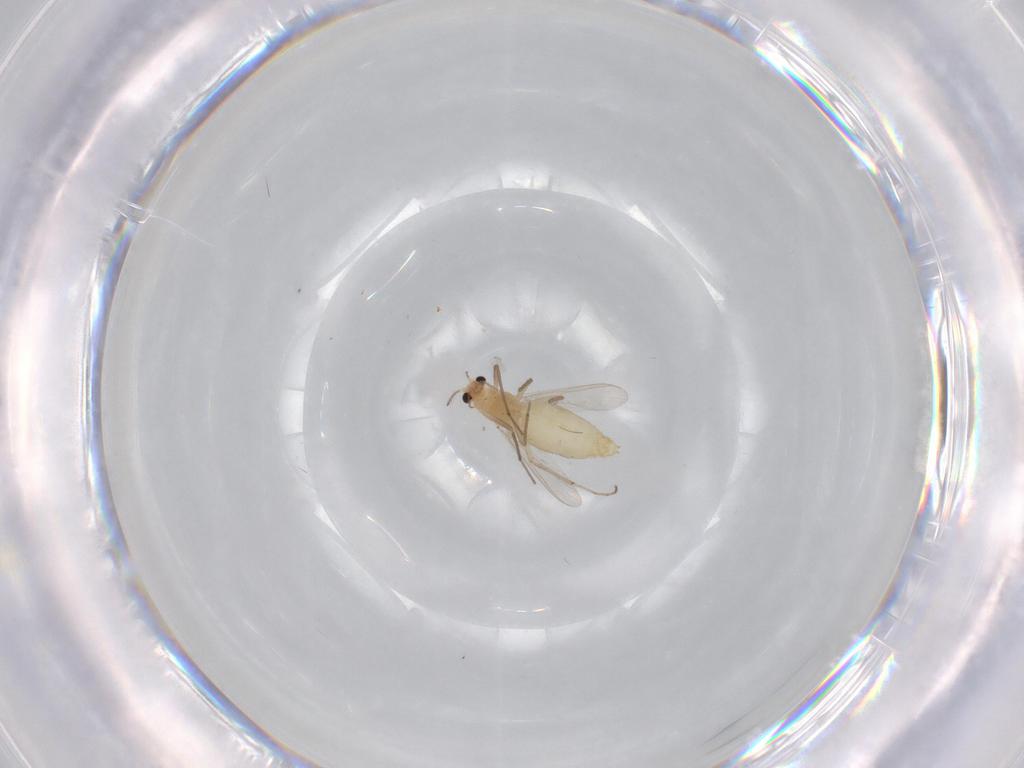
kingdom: Animalia
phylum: Arthropoda
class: Insecta
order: Diptera
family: Chironomidae
